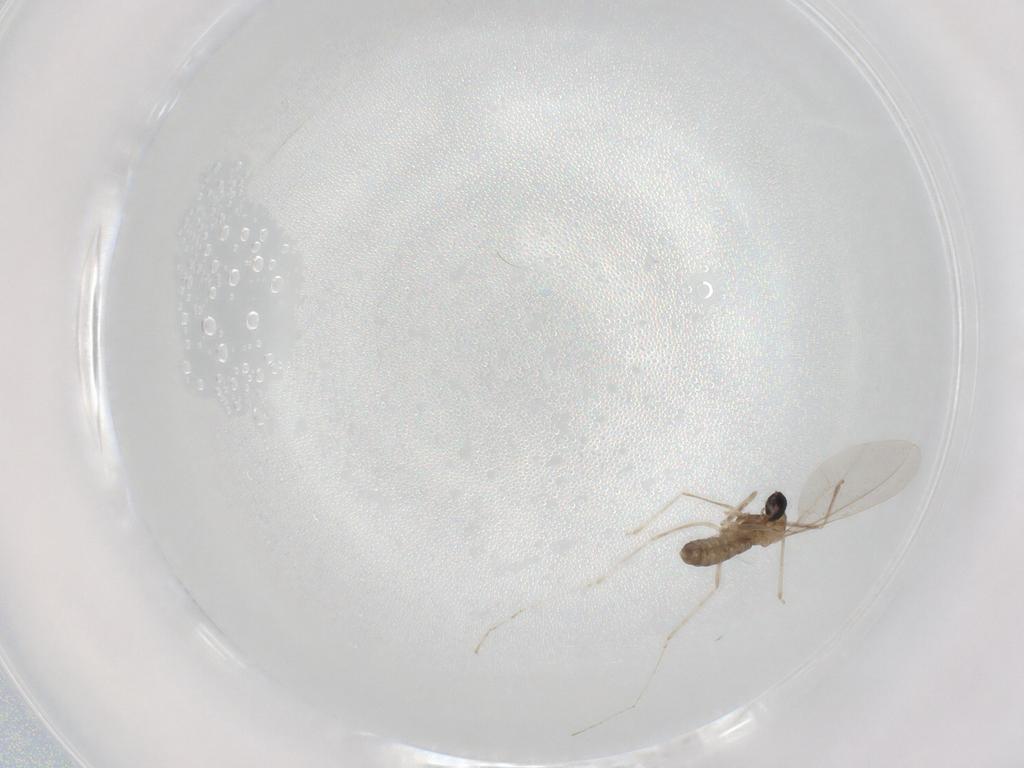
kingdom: Animalia
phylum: Arthropoda
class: Insecta
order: Diptera
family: Cecidomyiidae
